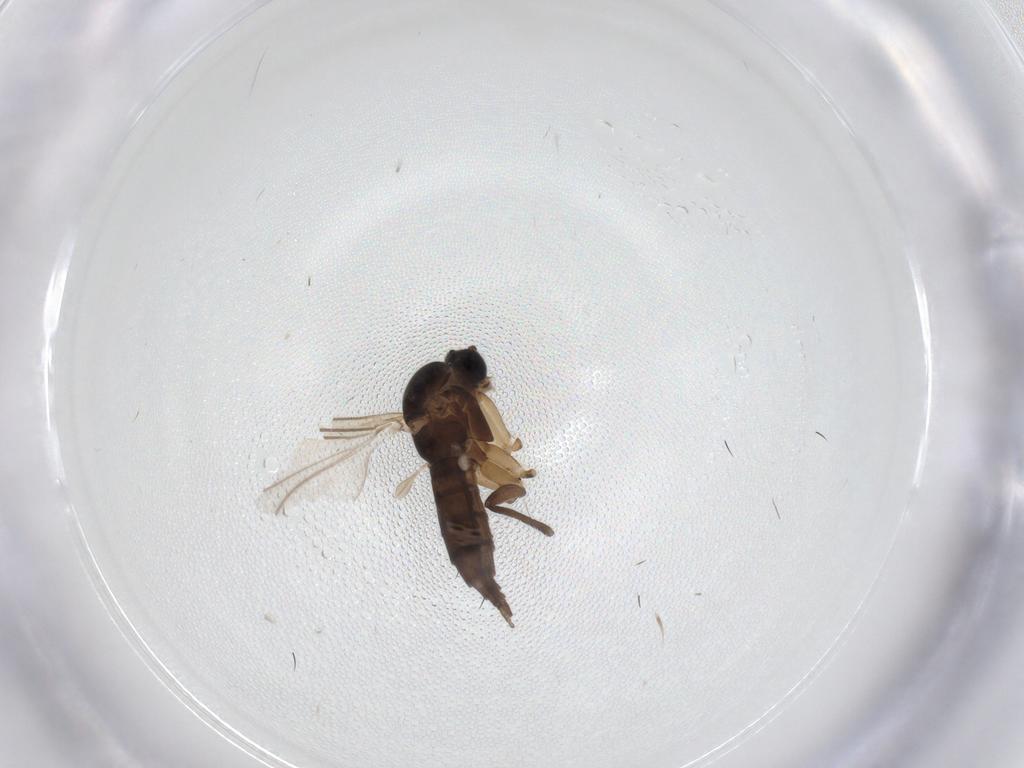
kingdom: Animalia
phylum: Arthropoda
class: Insecta
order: Diptera
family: Sciaridae
